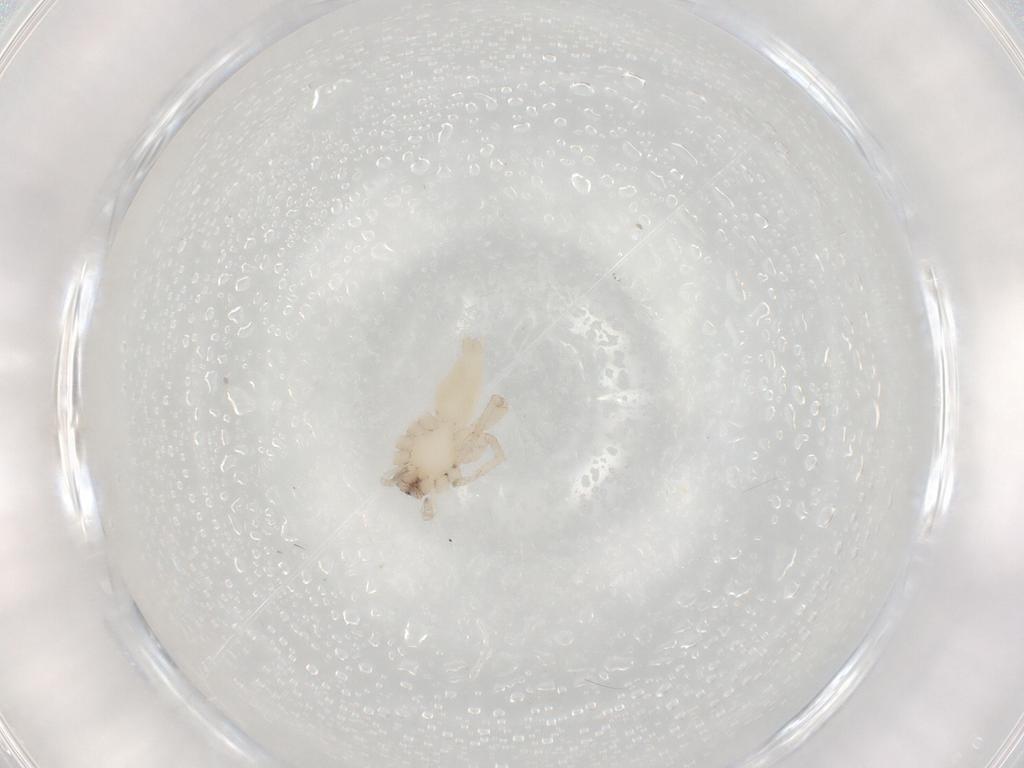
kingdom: Animalia
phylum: Arthropoda
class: Arachnida
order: Araneae
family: Clubionidae
